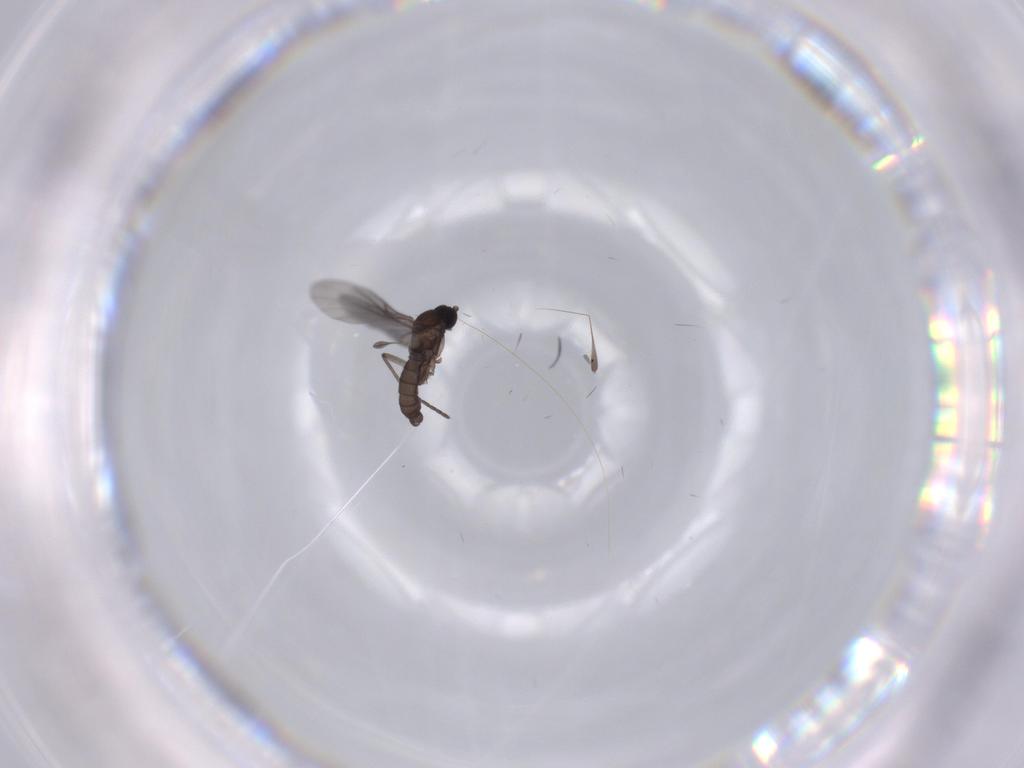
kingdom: Animalia
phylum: Arthropoda
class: Insecta
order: Diptera
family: Sciaridae
